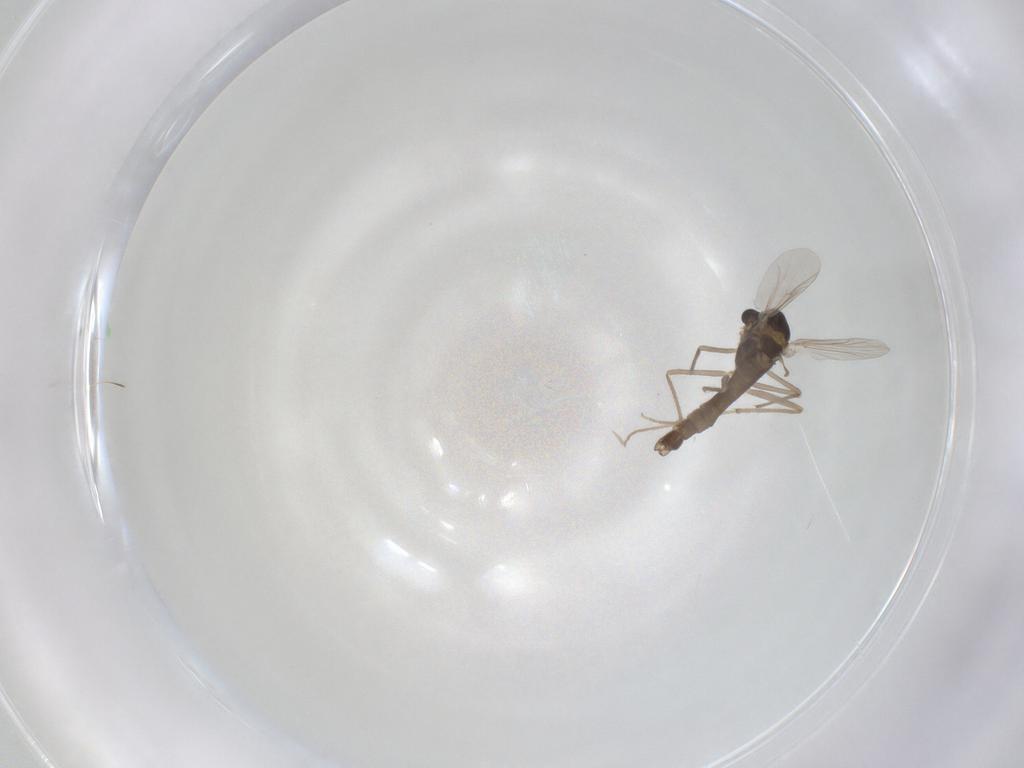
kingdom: Animalia
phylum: Arthropoda
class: Insecta
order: Diptera
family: Chironomidae
